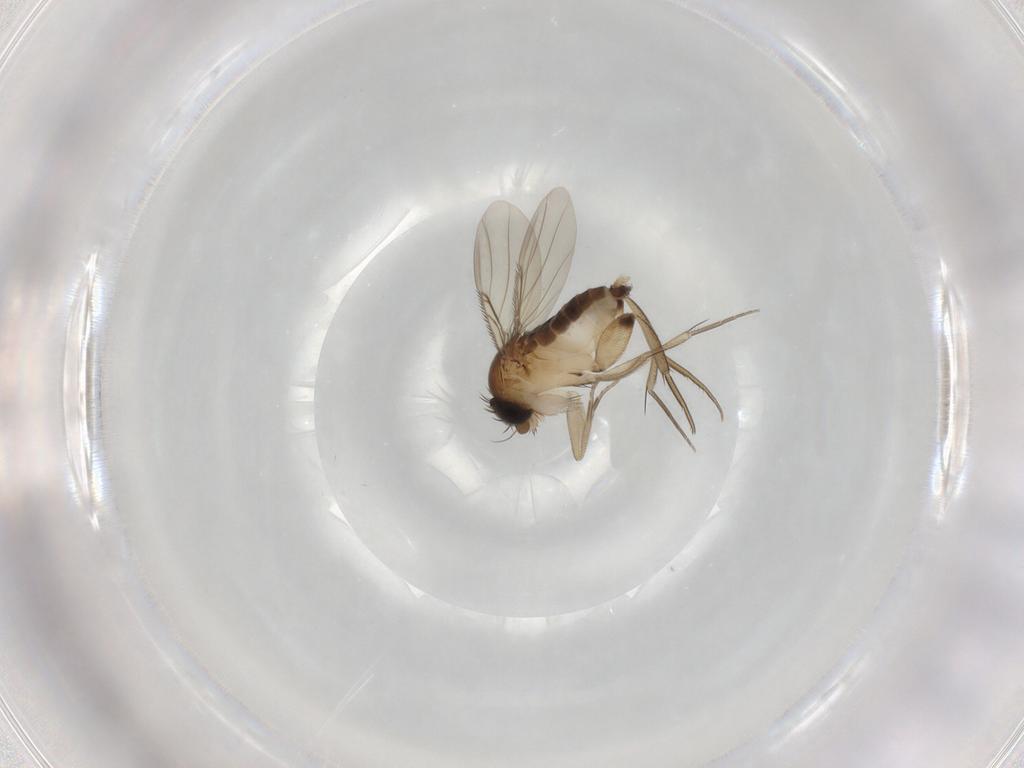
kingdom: Animalia
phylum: Arthropoda
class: Insecta
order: Diptera
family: Phoridae
